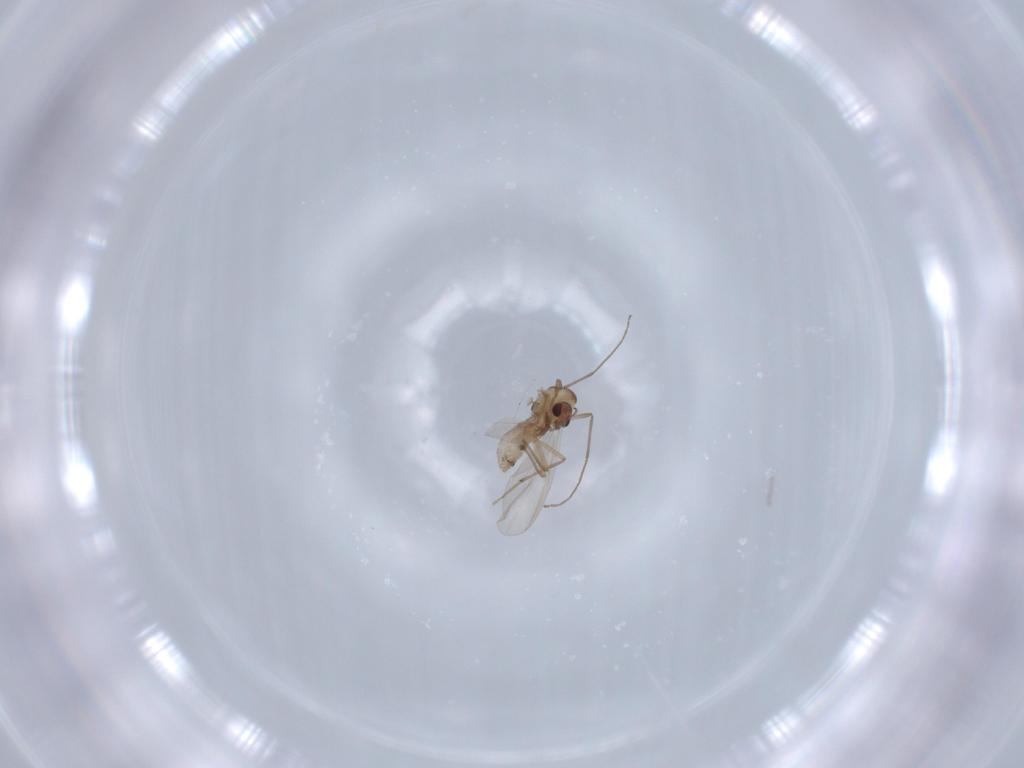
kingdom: Animalia
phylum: Arthropoda
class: Insecta
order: Diptera
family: Chironomidae
